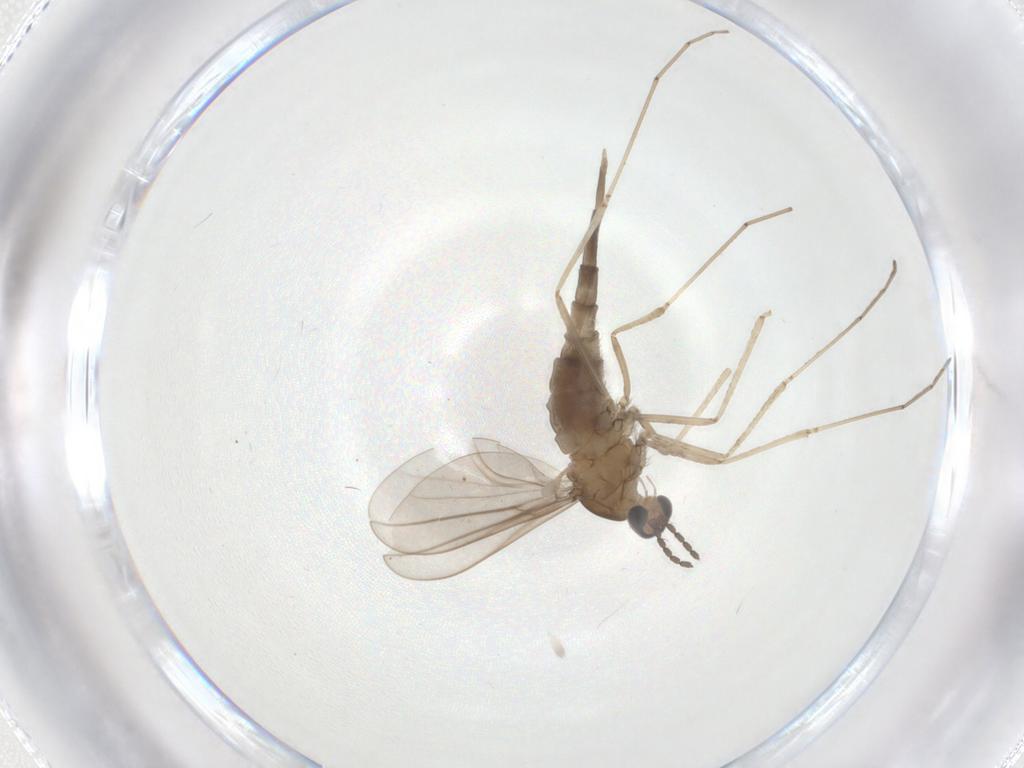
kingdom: Animalia
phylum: Arthropoda
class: Insecta
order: Diptera
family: Cecidomyiidae
